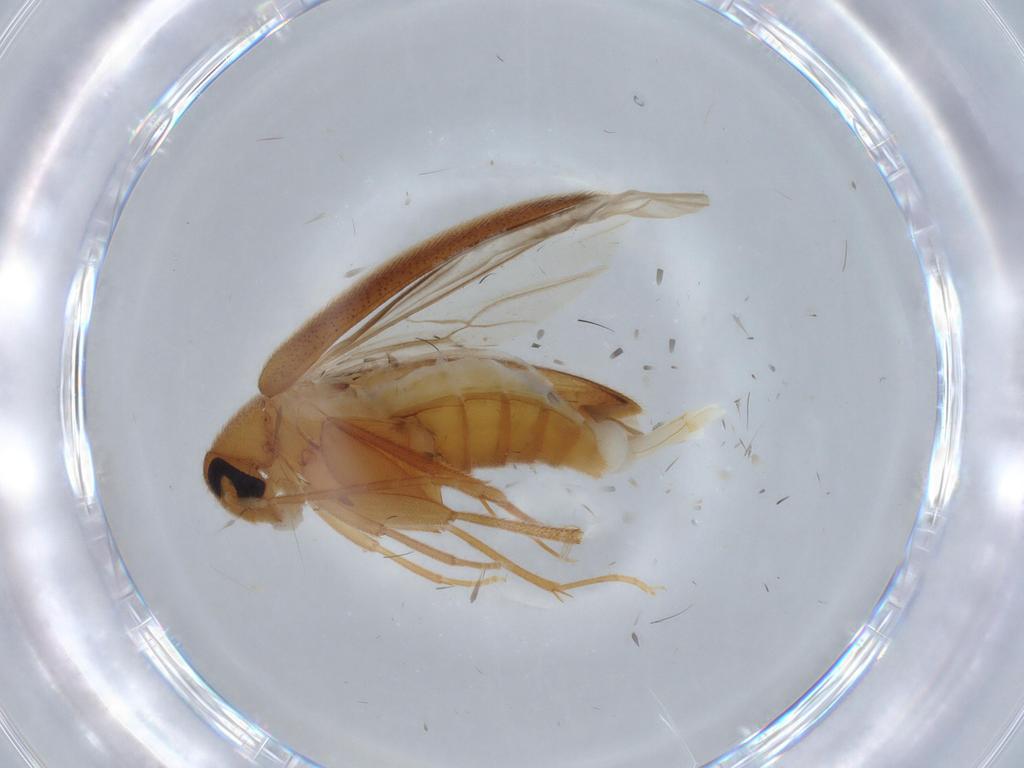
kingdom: Animalia
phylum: Arthropoda
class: Insecta
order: Coleoptera
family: Scraptiidae
